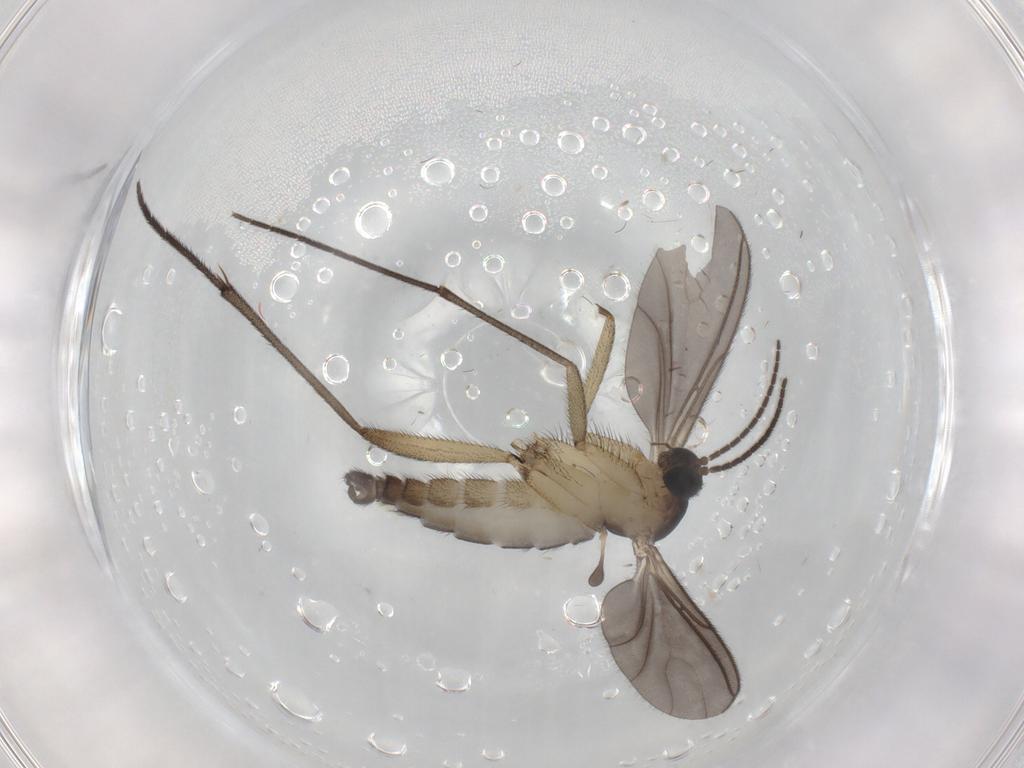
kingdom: Animalia
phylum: Arthropoda
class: Insecta
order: Diptera
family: Sciaridae
